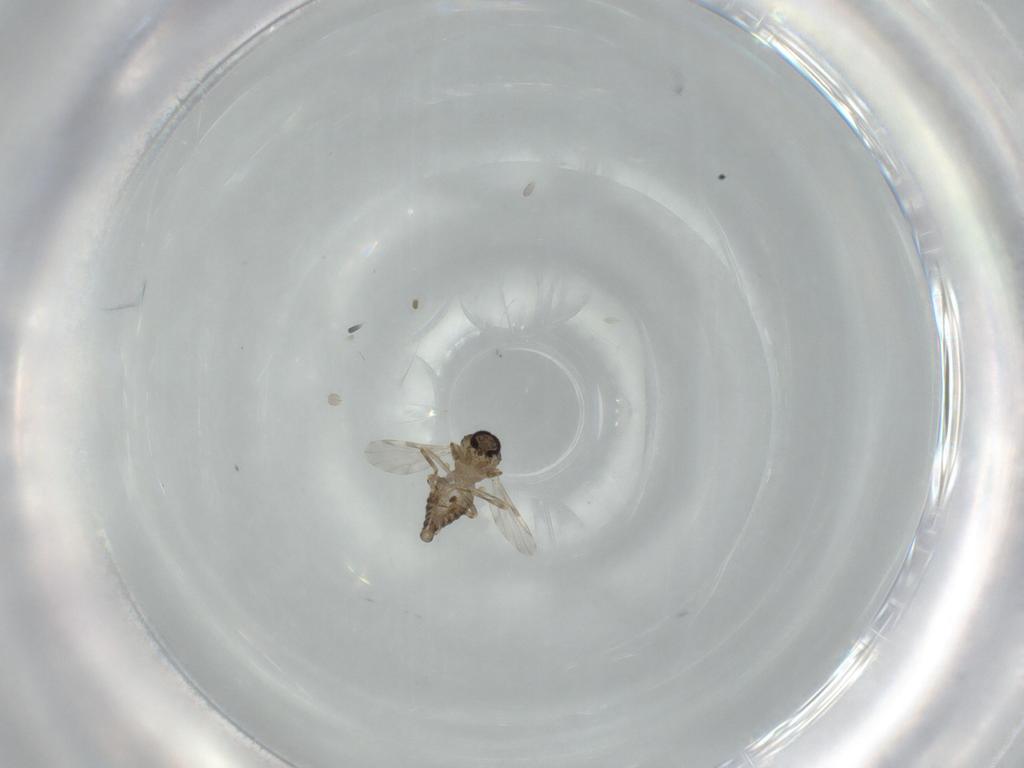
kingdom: Animalia
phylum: Arthropoda
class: Insecta
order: Diptera
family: Ceratopogonidae
